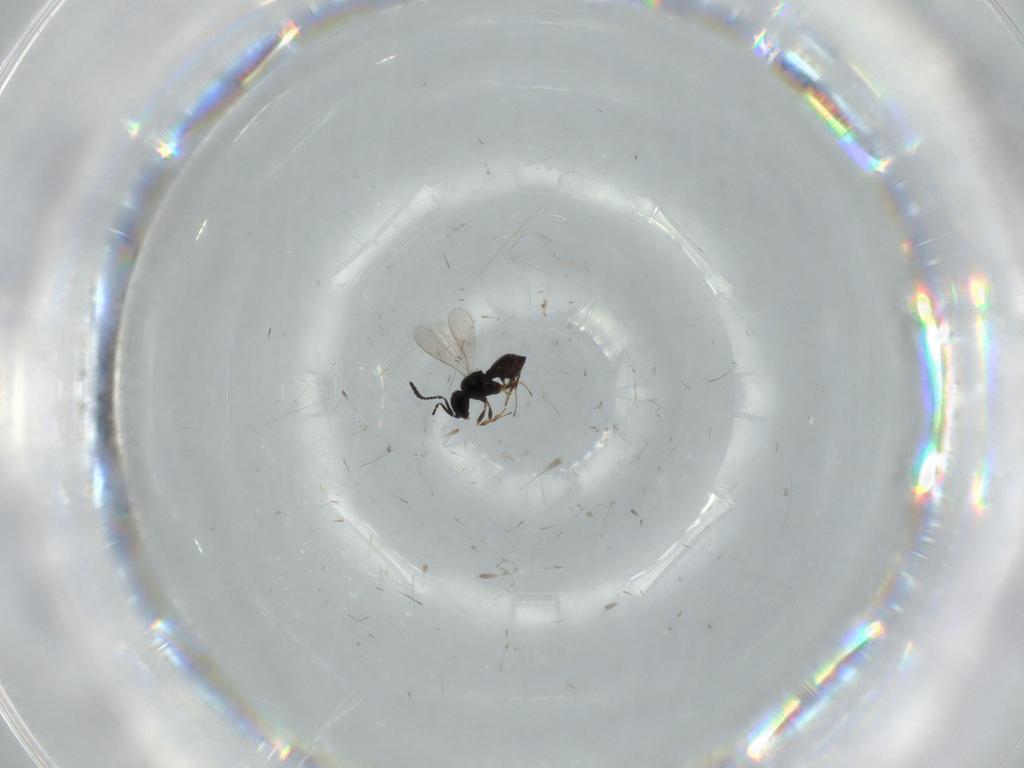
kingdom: Animalia
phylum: Arthropoda
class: Insecta
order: Hymenoptera
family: Scelionidae
